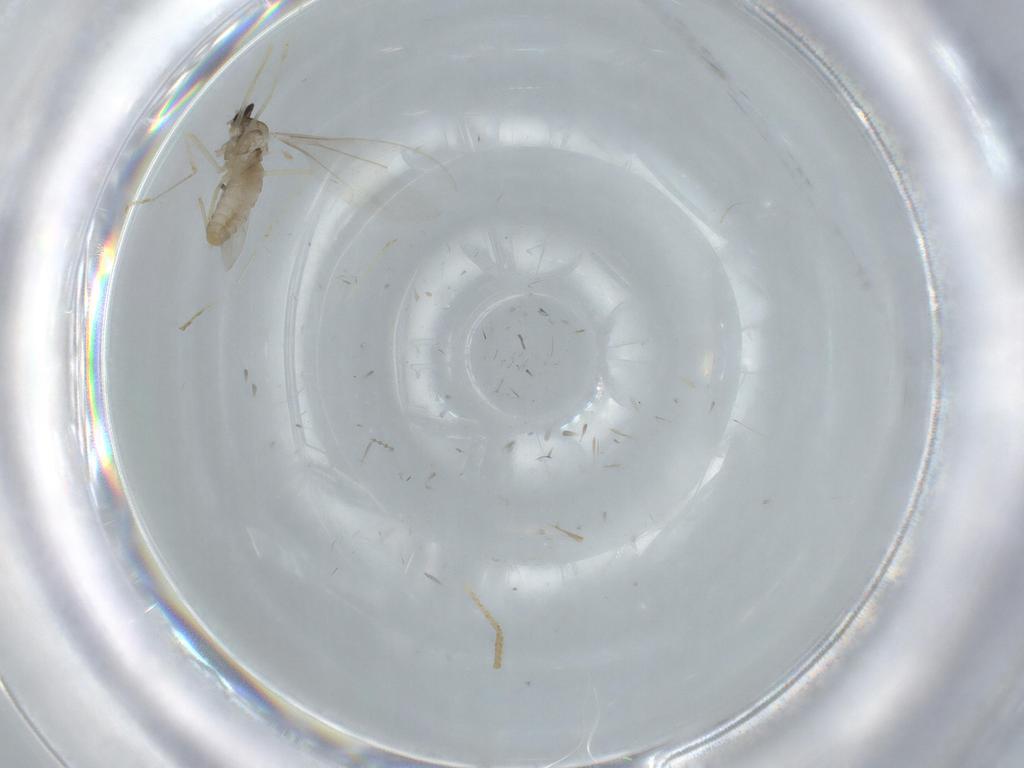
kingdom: Animalia
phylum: Arthropoda
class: Insecta
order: Diptera
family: Cecidomyiidae
